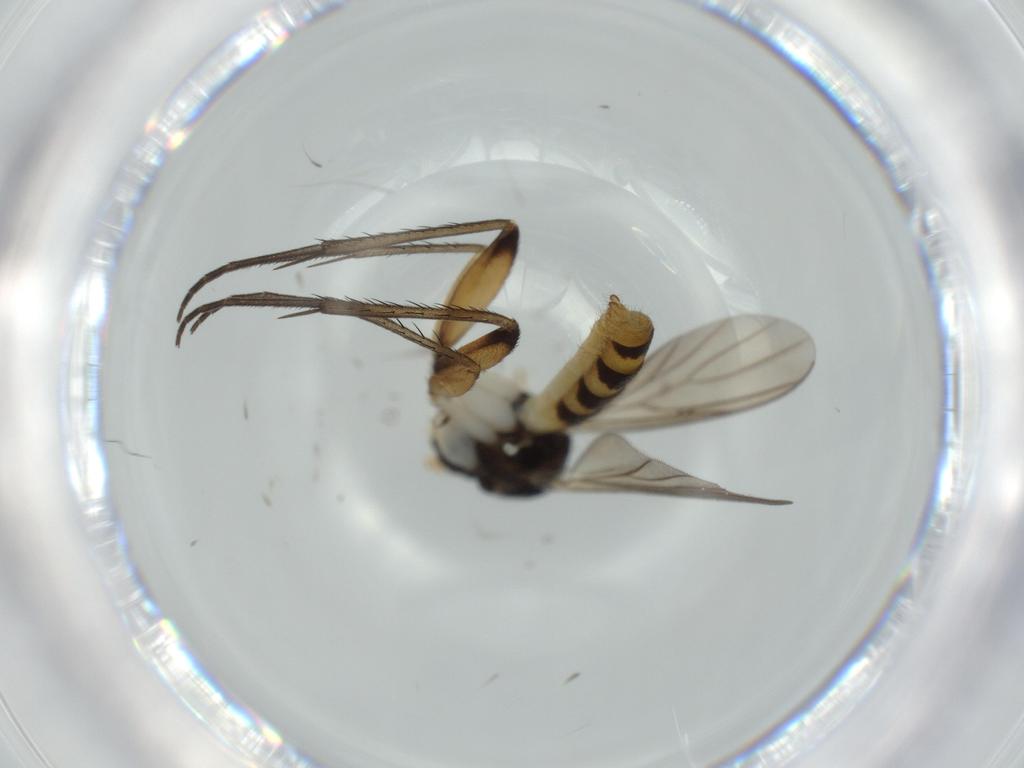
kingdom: Animalia
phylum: Arthropoda
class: Insecta
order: Diptera
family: Mycetophilidae
